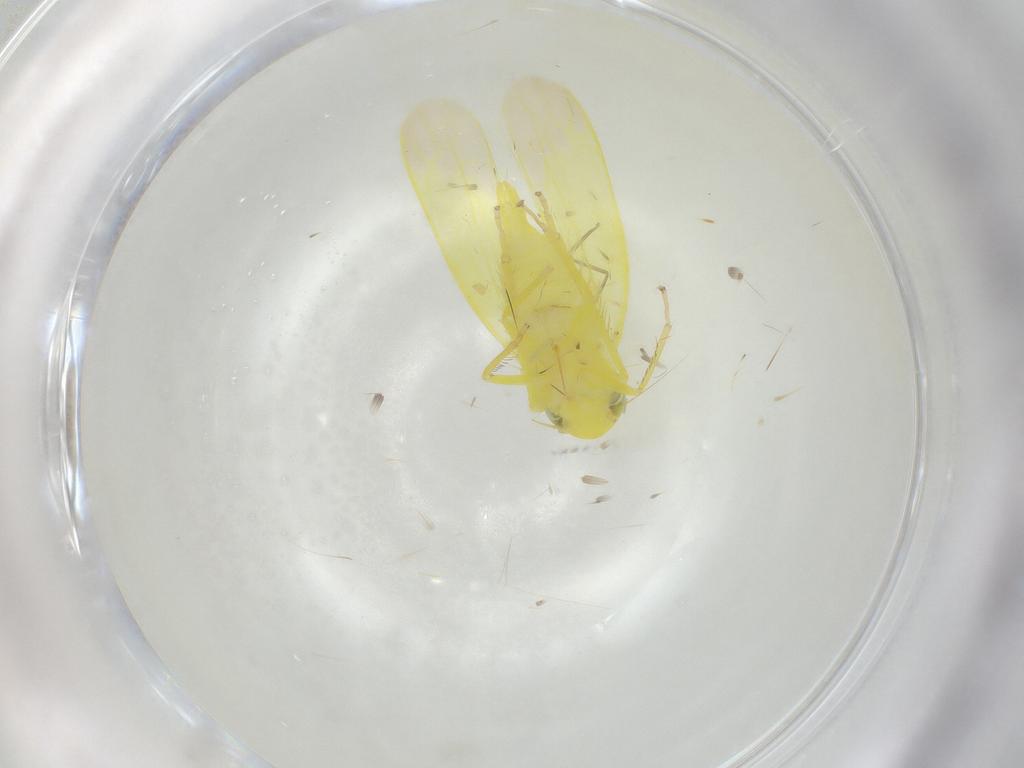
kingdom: Animalia
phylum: Arthropoda
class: Insecta
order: Hemiptera
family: Cicadellidae
